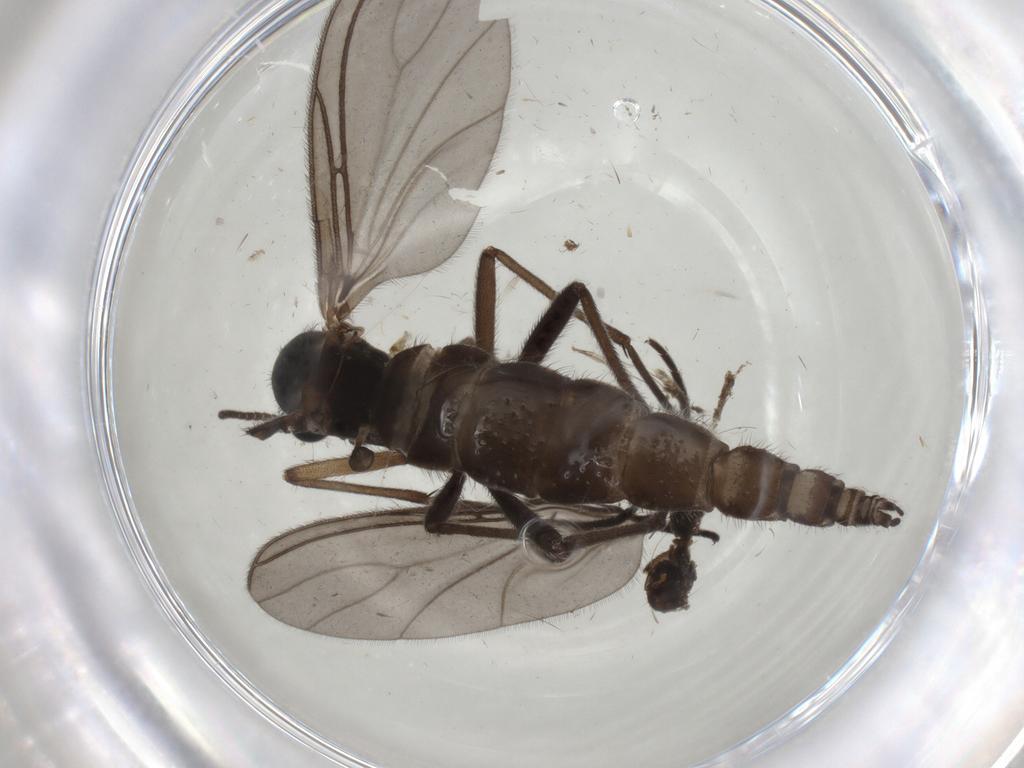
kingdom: Animalia
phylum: Arthropoda
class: Insecta
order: Diptera
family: Sciaridae
